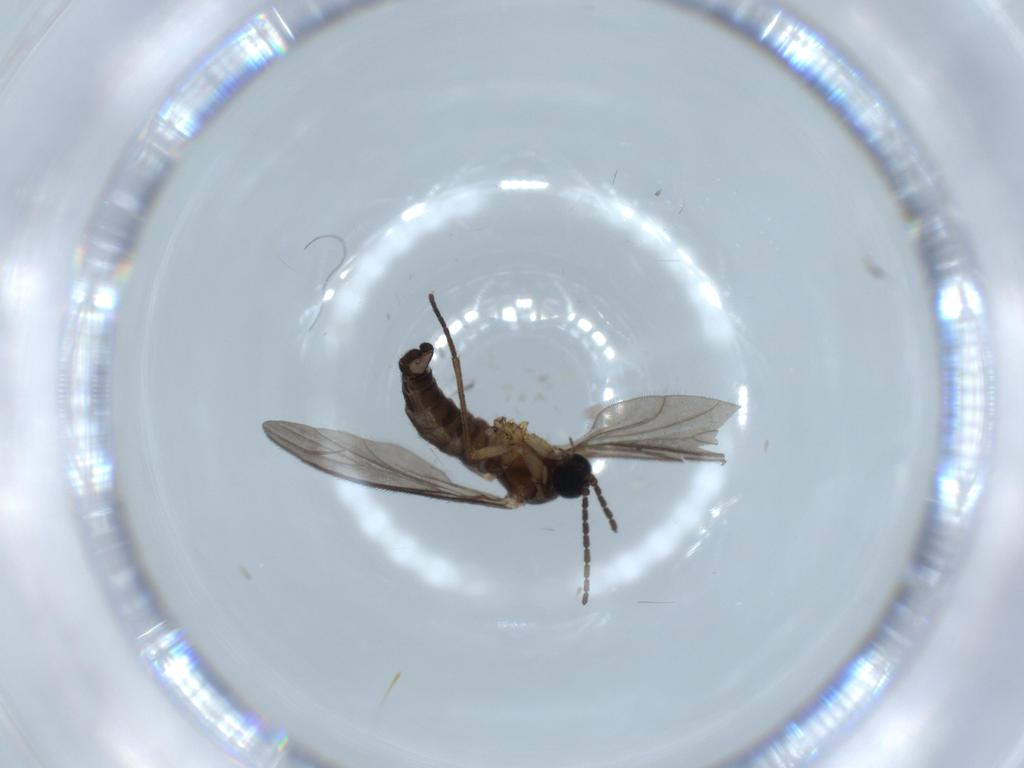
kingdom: Animalia
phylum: Arthropoda
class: Insecta
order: Diptera
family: Sciaridae
